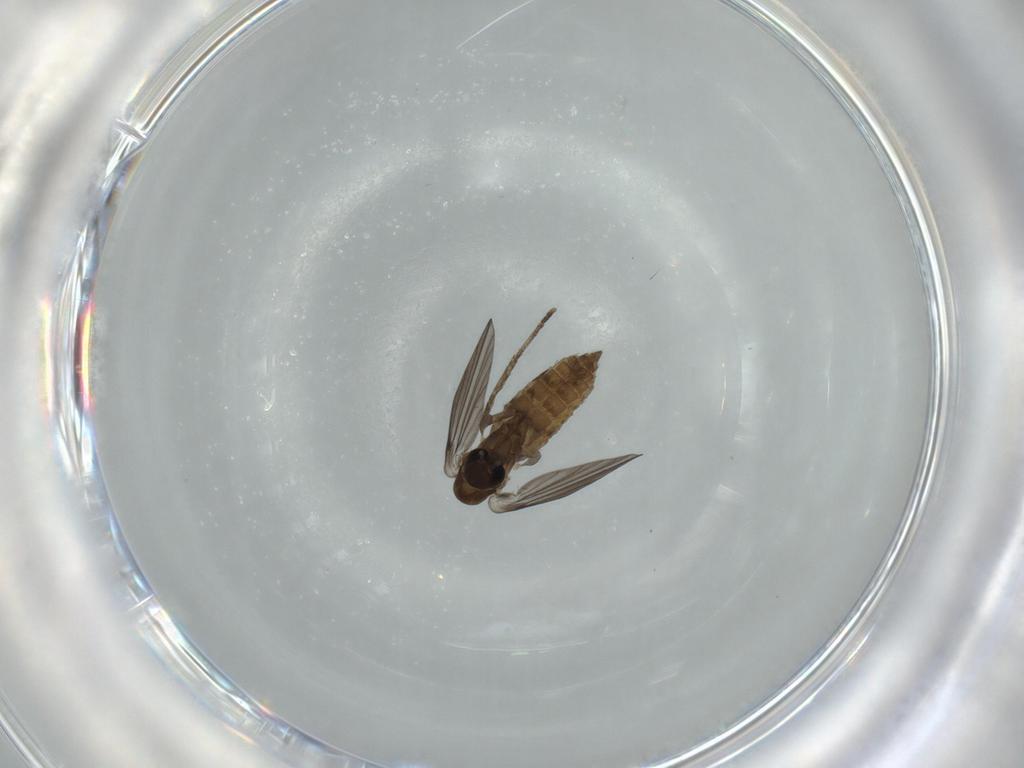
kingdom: Animalia
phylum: Arthropoda
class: Insecta
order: Diptera
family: Psychodidae
